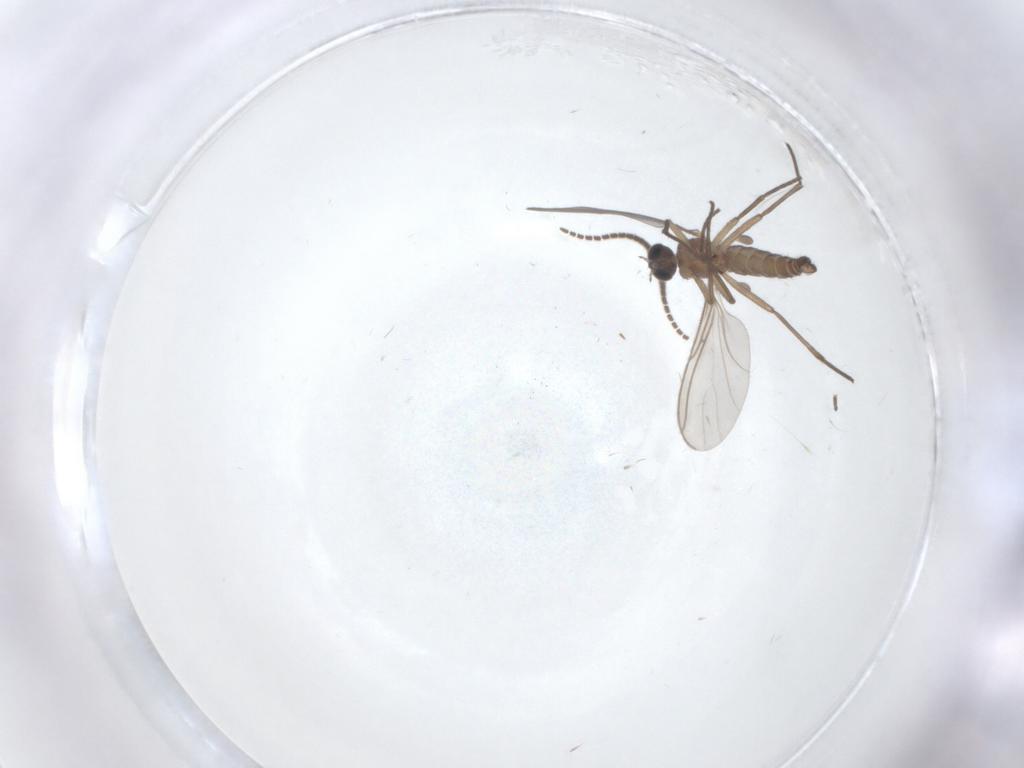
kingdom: Animalia
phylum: Arthropoda
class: Insecta
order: Diptera
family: Sciaridae
